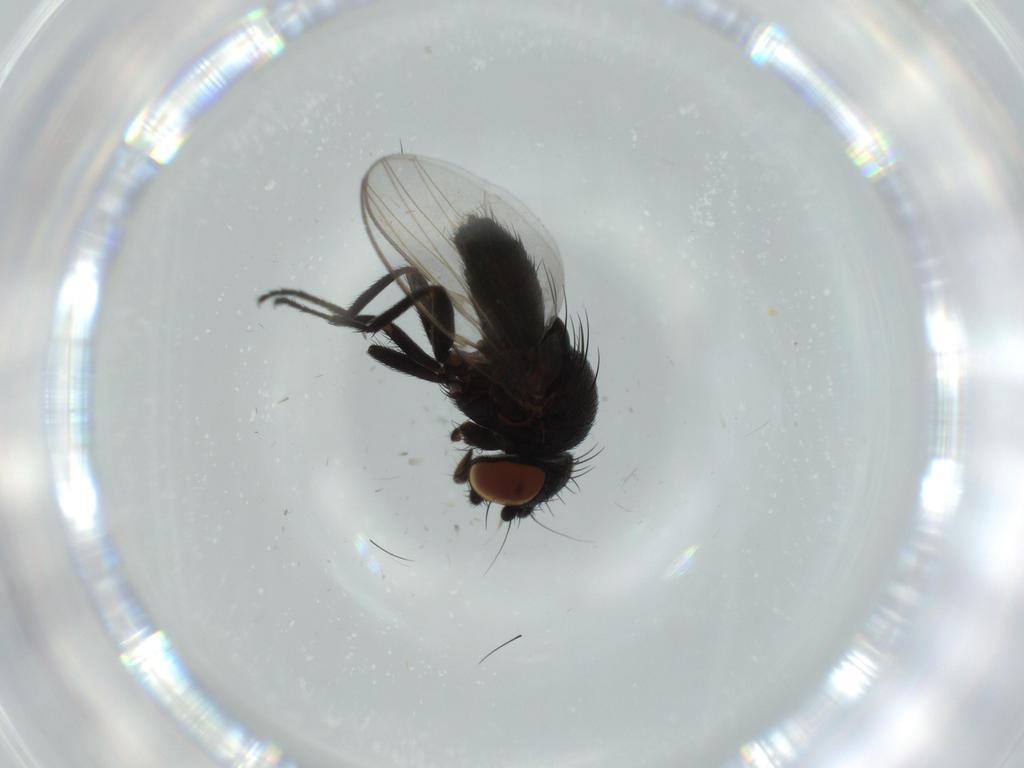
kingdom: Animalia
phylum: Arthropoda
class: Insecta
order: Diptera
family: Milichiidae
